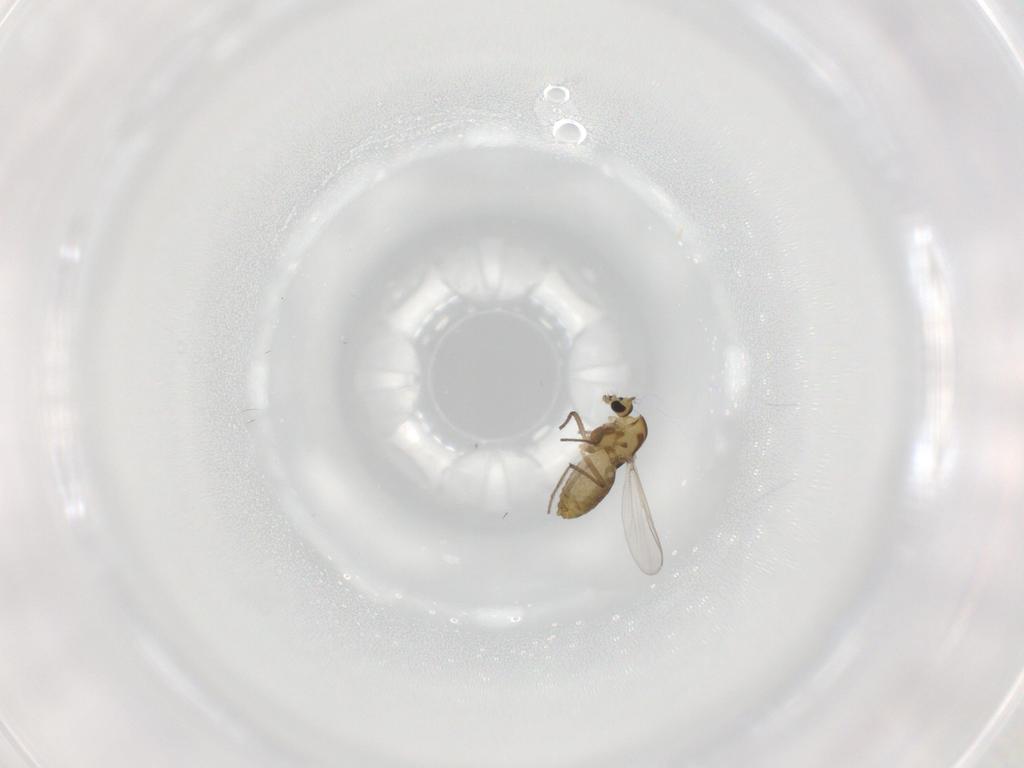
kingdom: Animalia
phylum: Arthropoda
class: Insecta
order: Diptera
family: Chironomidae
